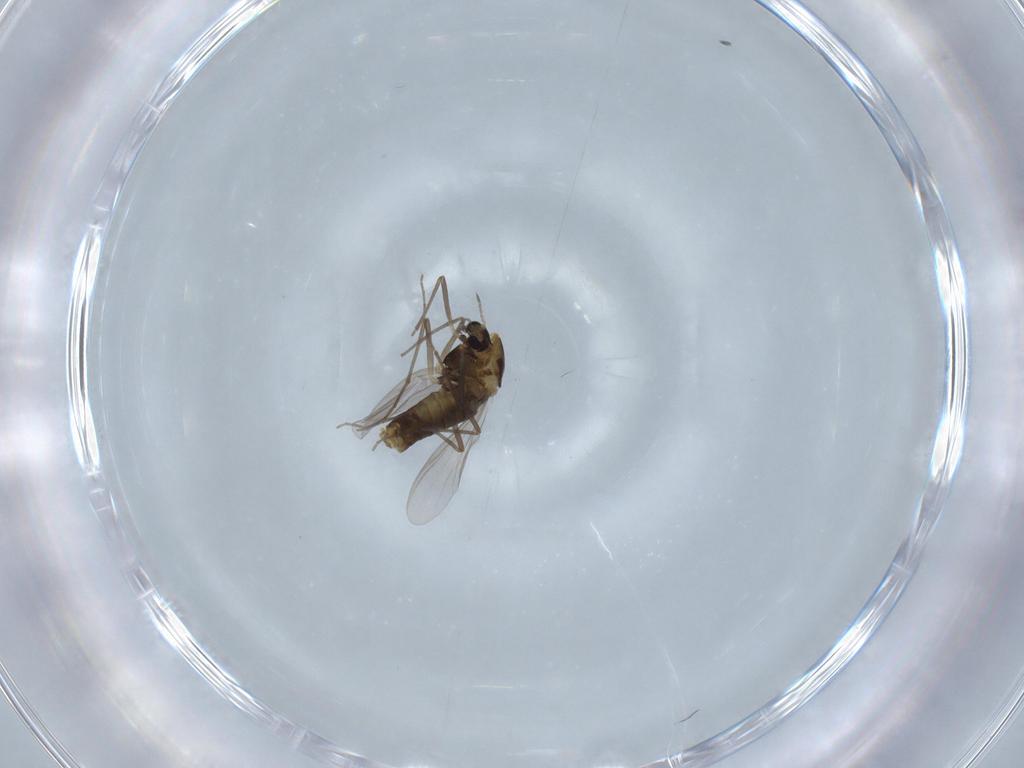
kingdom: Animalia
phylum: Arthropoda
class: Insecta
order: Diptera
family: Chironomidae
